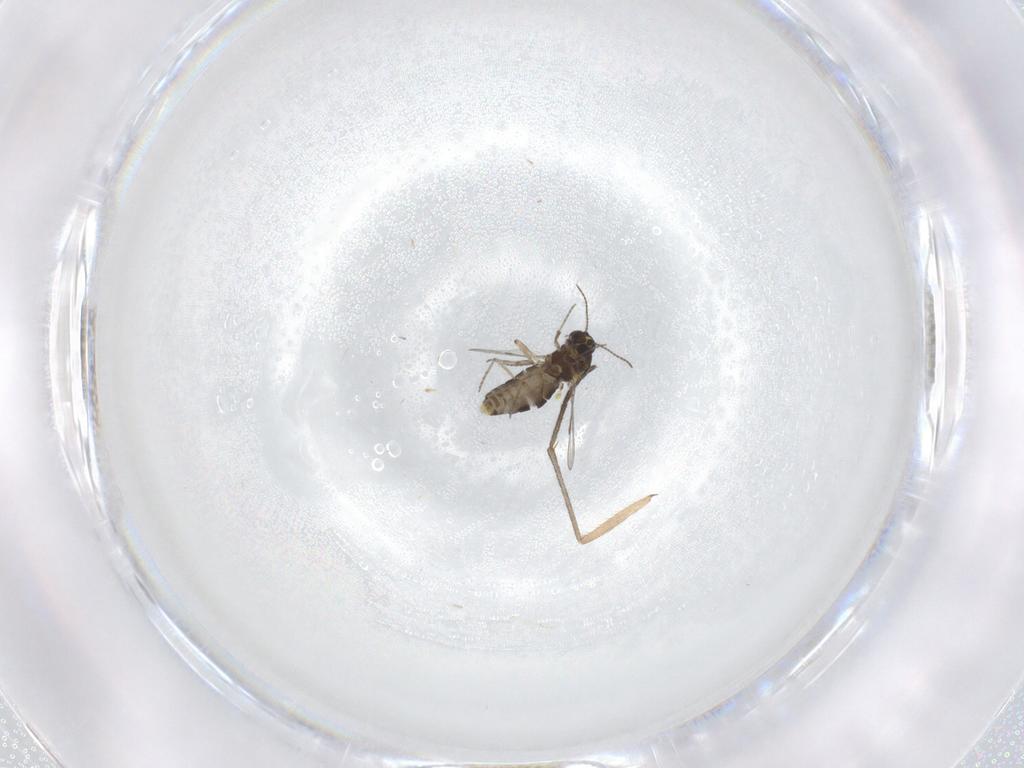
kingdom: Animalia
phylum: Arthropoda
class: Insecta
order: Diptera
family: Ceratopogonidae
